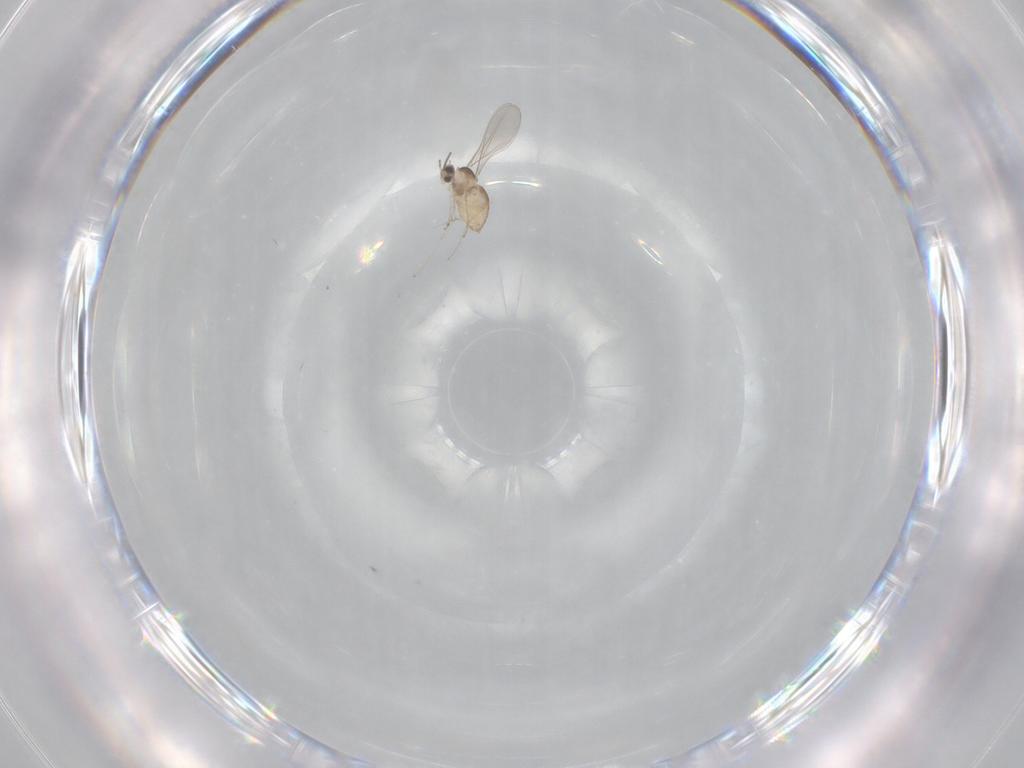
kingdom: Animalia
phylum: Arthropoda
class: Insecta
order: Diptera
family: Cecidomyiidae
